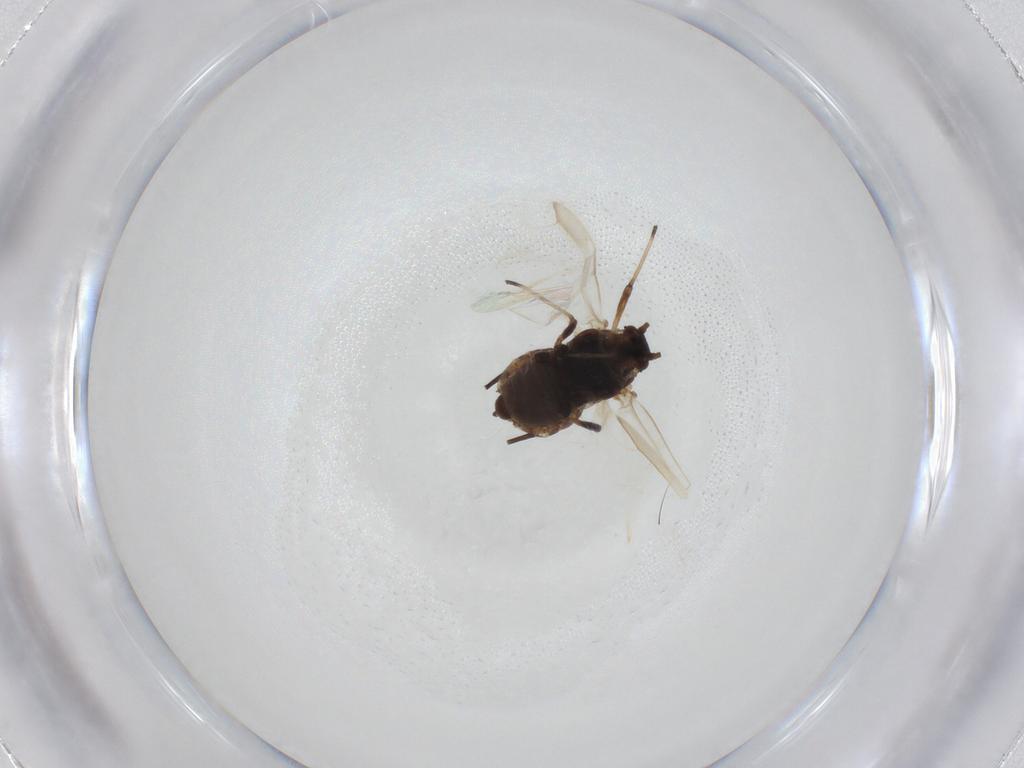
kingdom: Animalia
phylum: Arthropoda
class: Insecta
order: Hemiptera
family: Aphididae
